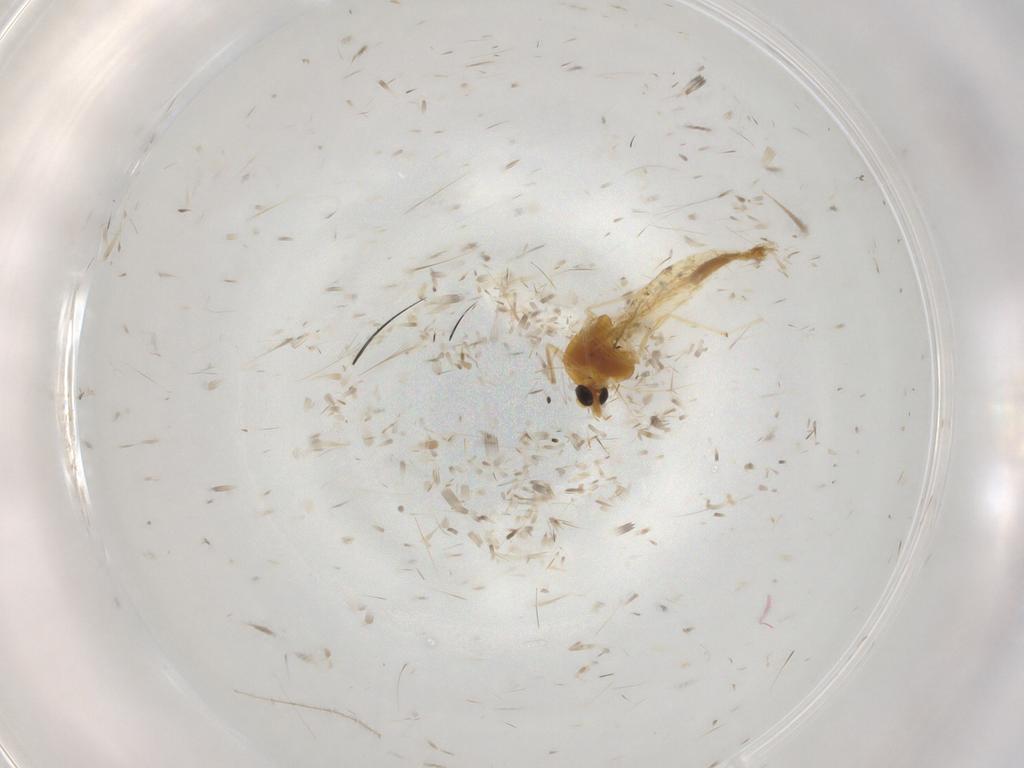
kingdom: Animalia
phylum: Arthropoda
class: Insecta
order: Diptera
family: Chironomidae
